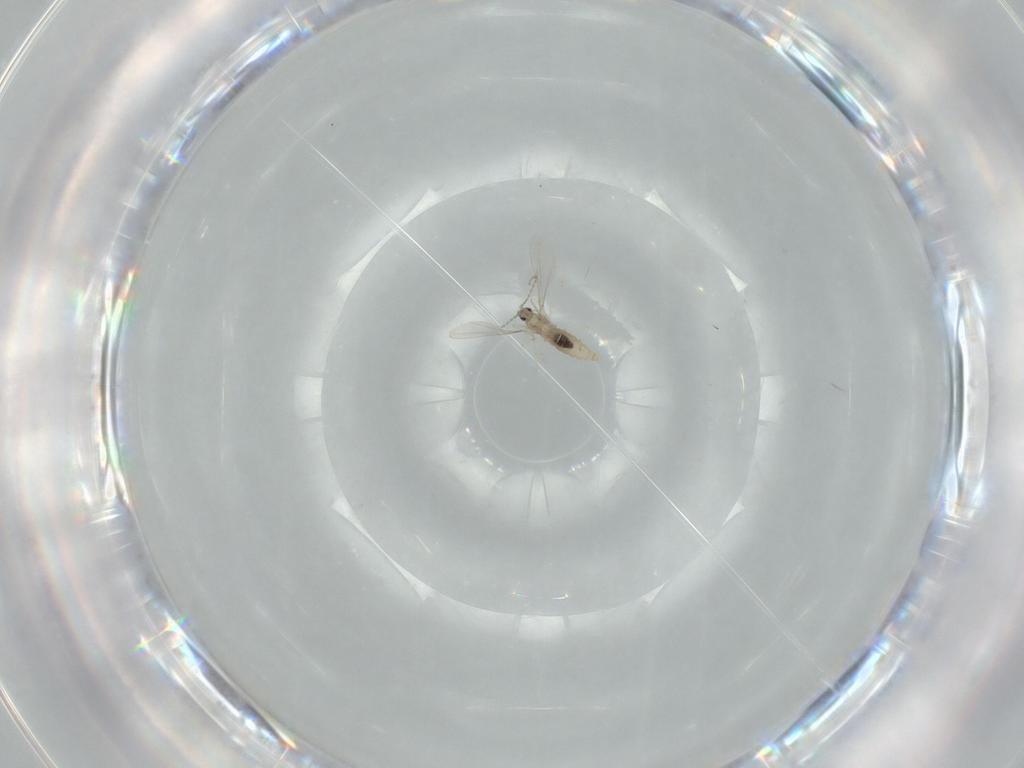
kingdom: Animalia
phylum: Arthropoda
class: Insecta
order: Diptera
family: Cecidomyiidae
